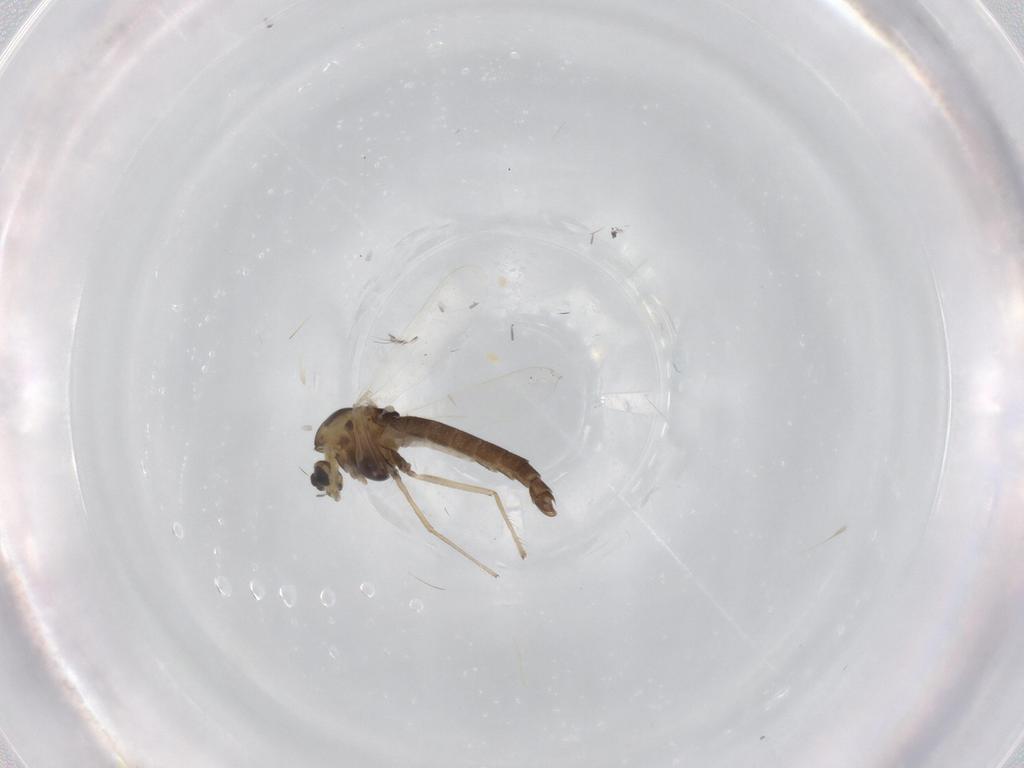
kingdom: Animalia
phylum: Arthropoda
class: Insecta
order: Diptera
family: Chironomidae
